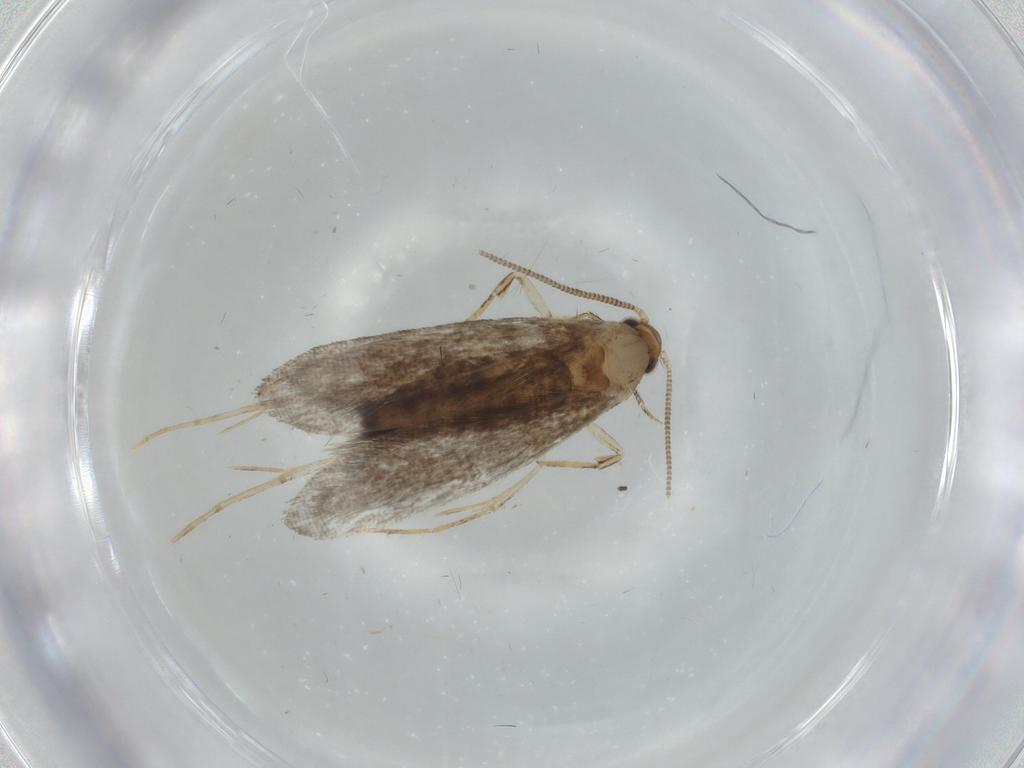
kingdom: Animalia
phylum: Arthropoda
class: Insecta
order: Lepidoptera
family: Tineidae
